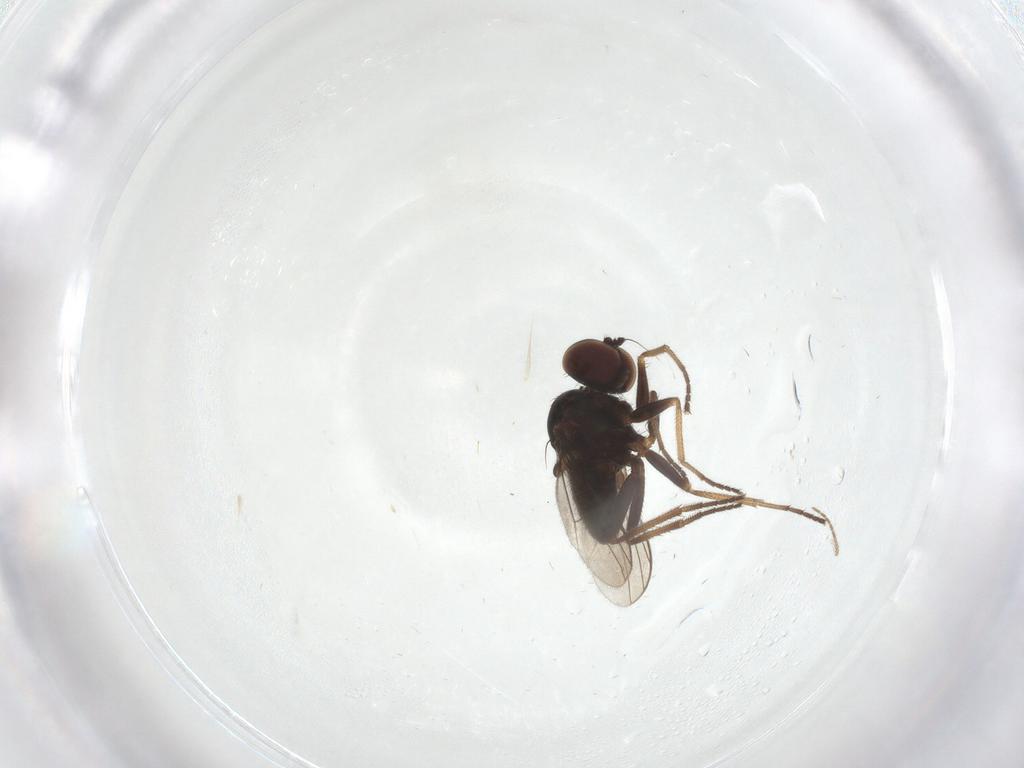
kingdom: Animalia
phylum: Arthropoda
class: Insecta
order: Diptera
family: Dolichopodidae
